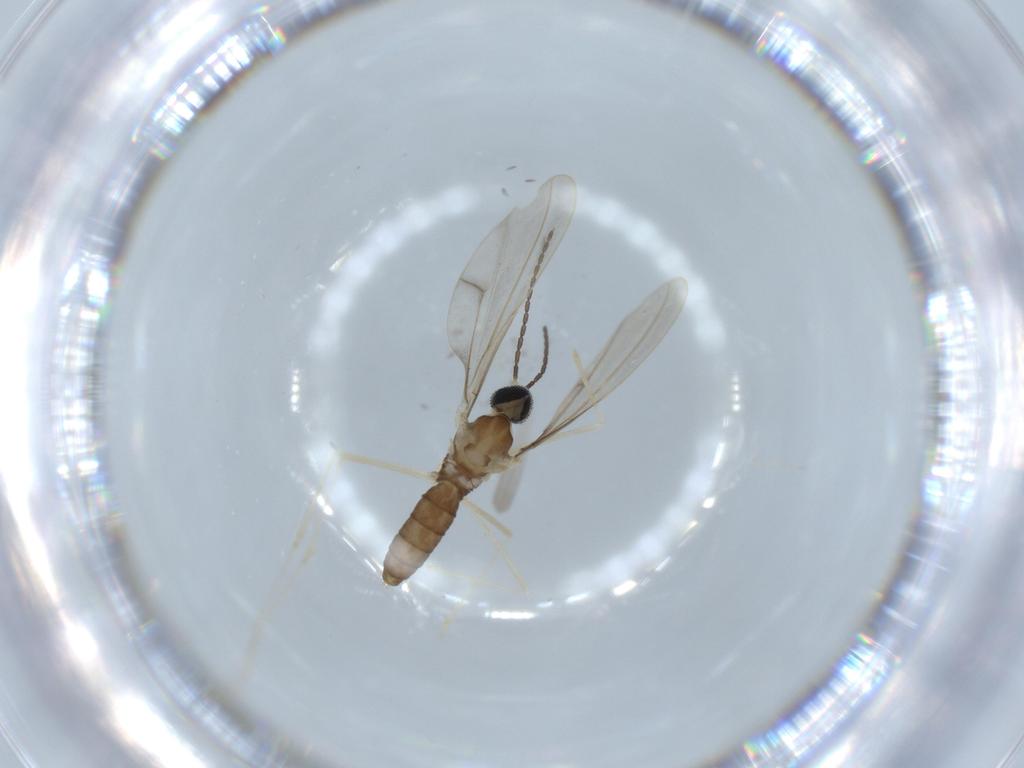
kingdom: Animalia
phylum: Arthropoda
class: Insecta
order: Diptera
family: Cecidomyiidae
